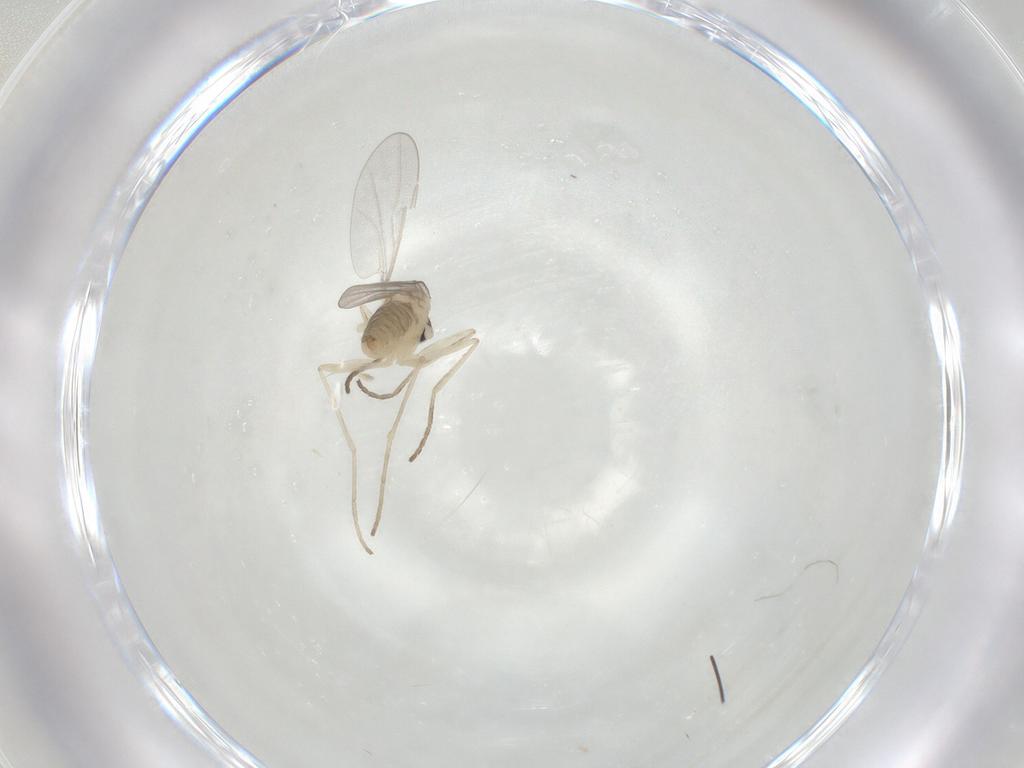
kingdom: Animalia
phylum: Arthropoda
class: Insecta
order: Diptera
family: Cecidomyiidae
